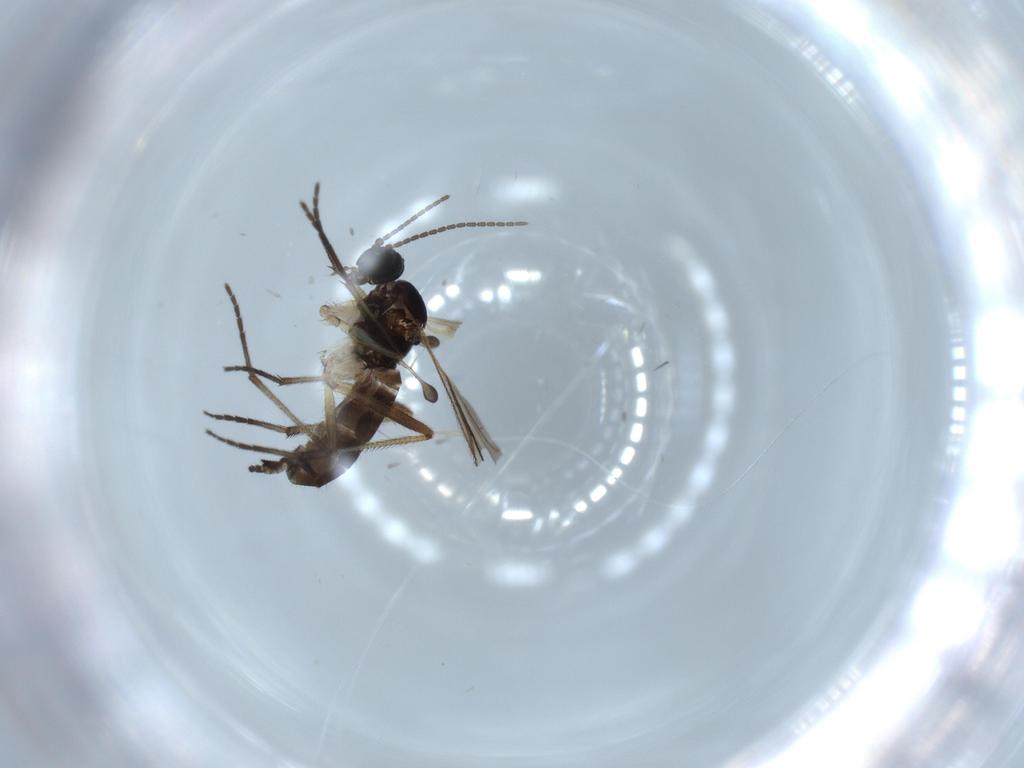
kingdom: Animalia
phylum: Arthropoda
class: Insecta
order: Diptera
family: Sciaridae
